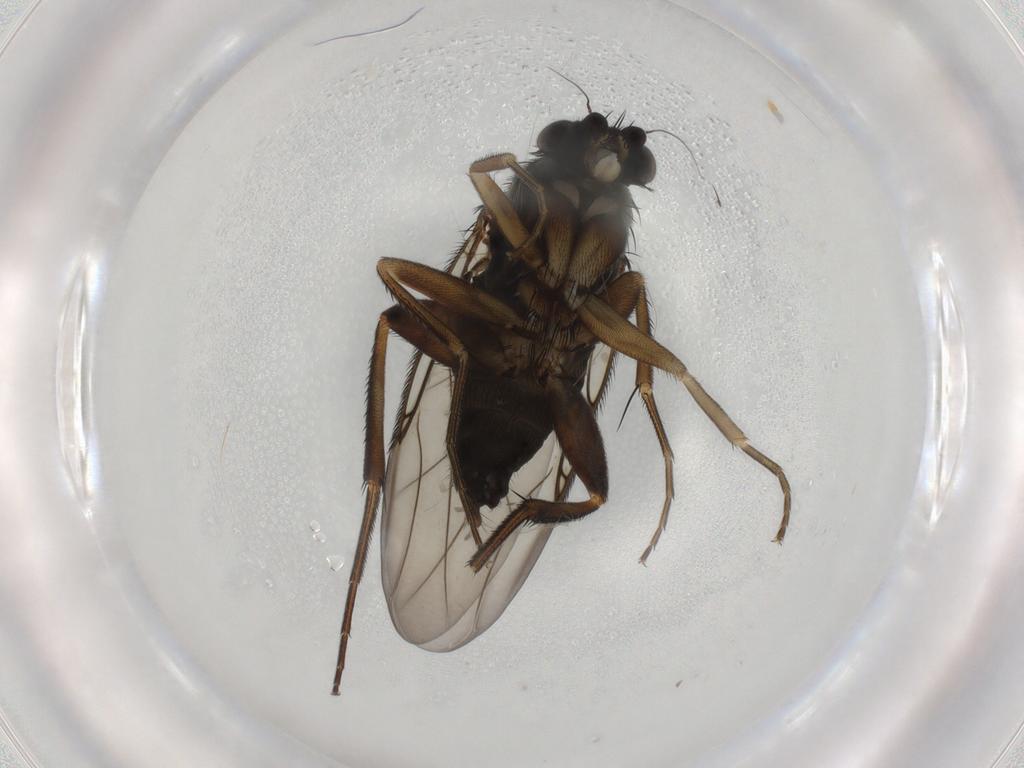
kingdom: Animalia
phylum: Arthropoda
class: Insecta
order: Diptera
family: Phoridae
